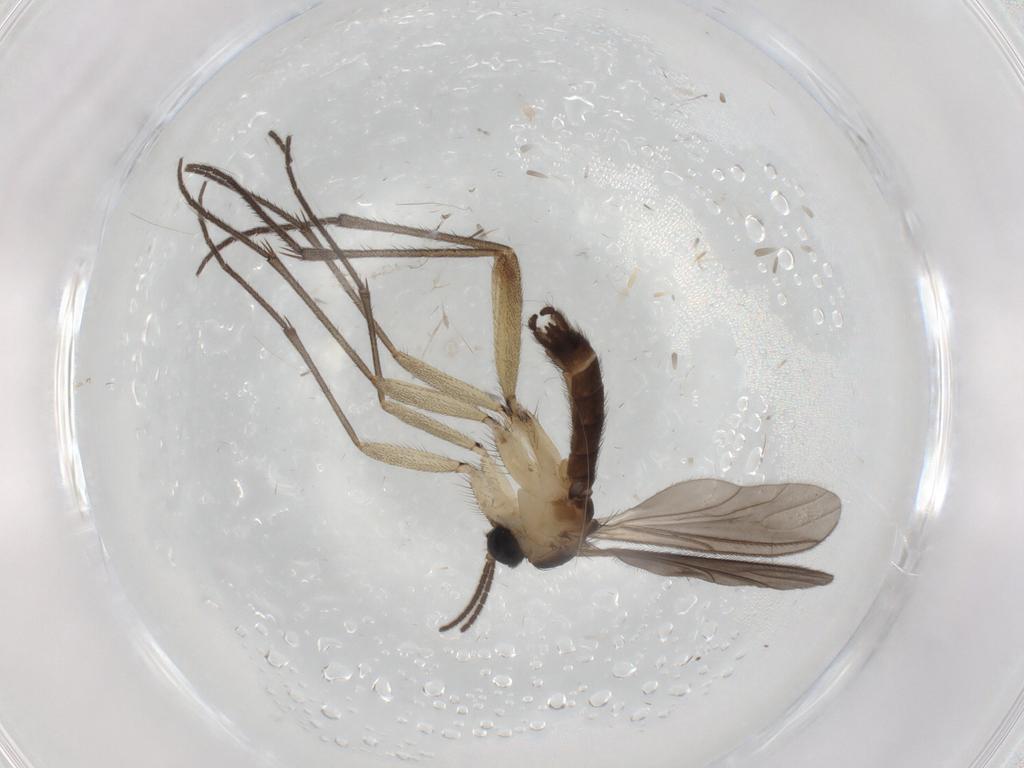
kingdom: Animalia
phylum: Arthropoda
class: Insecta
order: Diptera
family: Sciaridae
